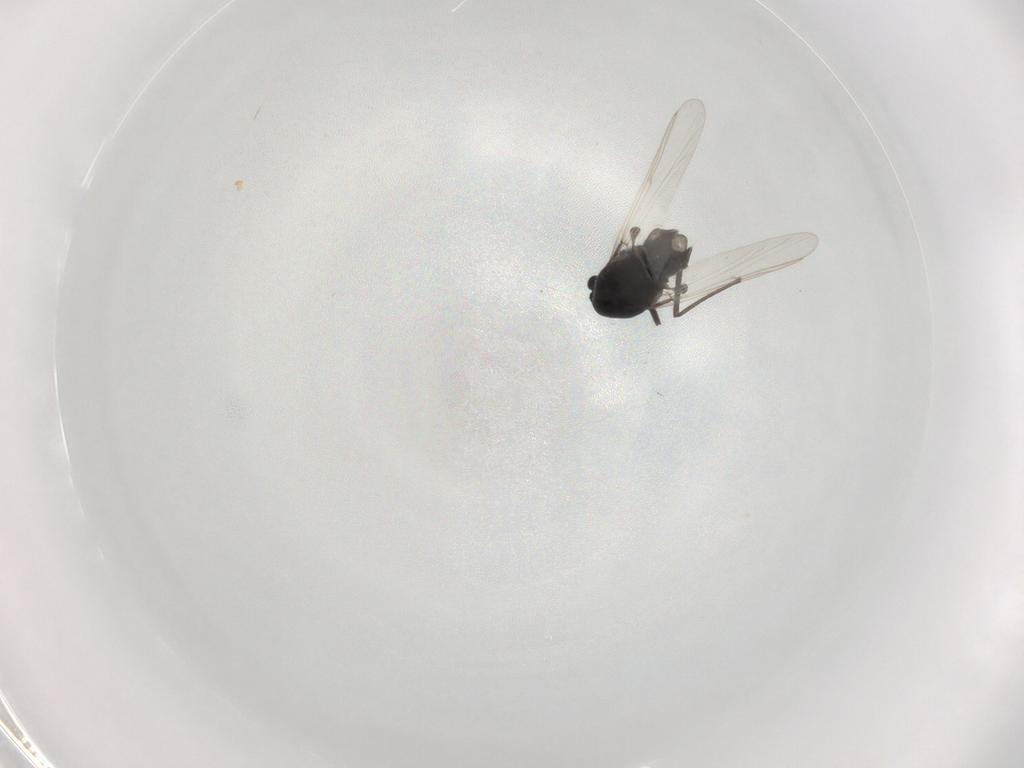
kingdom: Animalia
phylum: Arthropoda
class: Insecta
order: Diptera
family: Chironomidae
